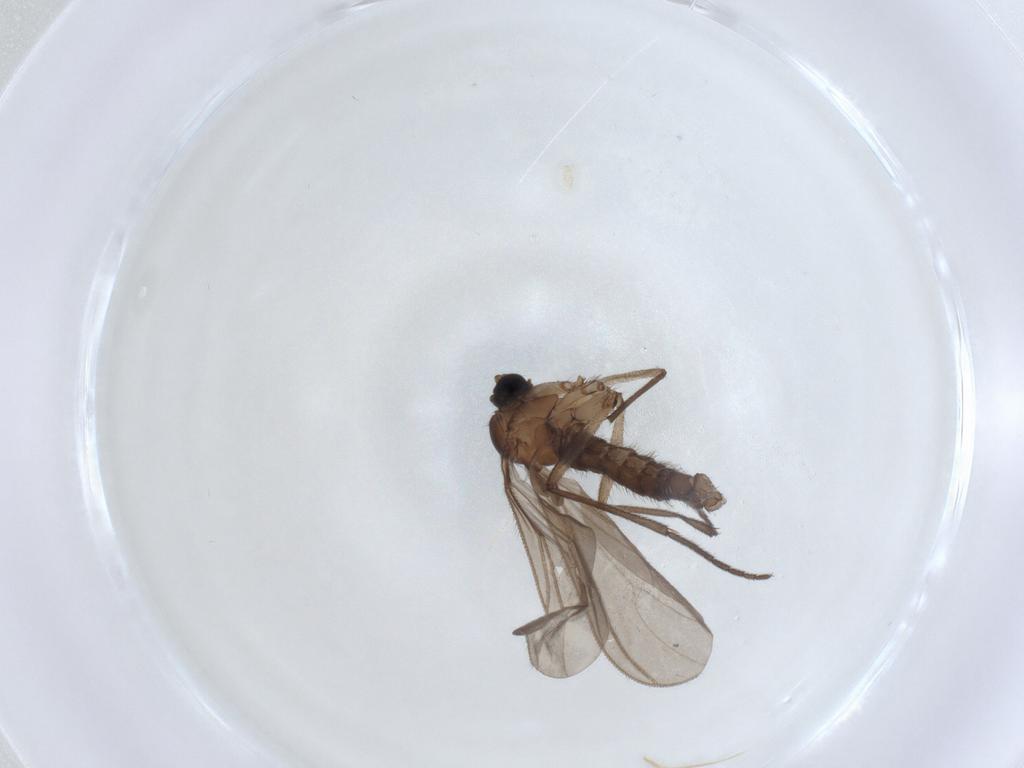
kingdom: Animalia
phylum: Arthropoda
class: Insecta
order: Diptera
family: Sciaridae
